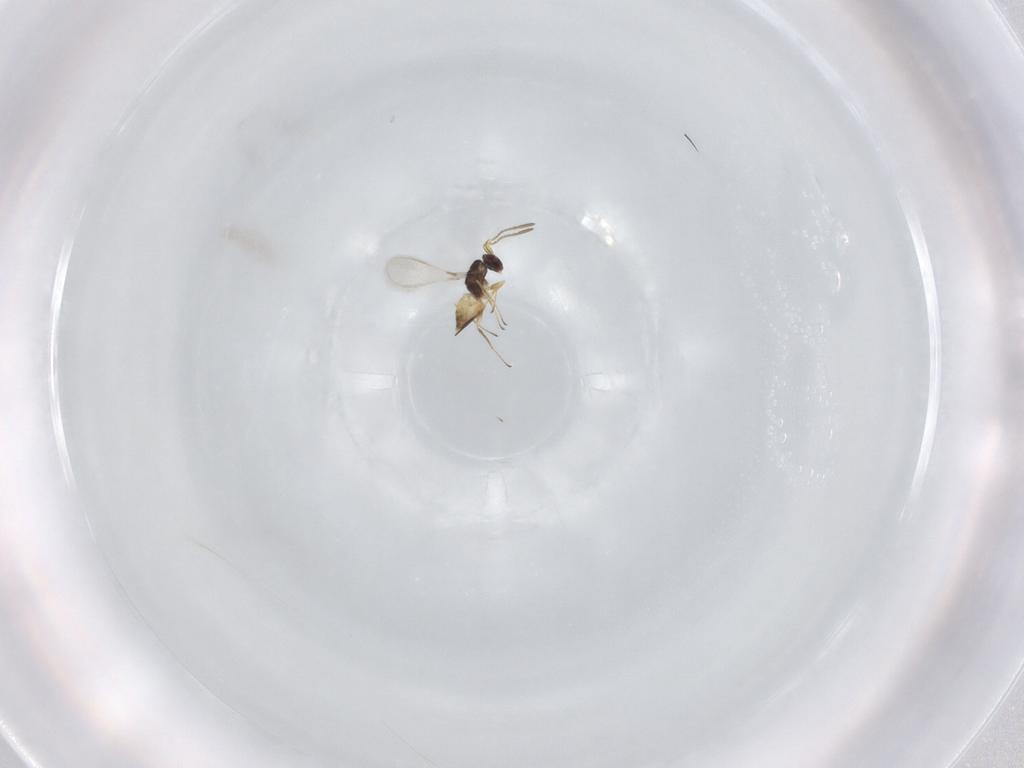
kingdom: Animalia
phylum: Arthropoda
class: Insecta
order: Hymenoptera
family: Mymaridae
